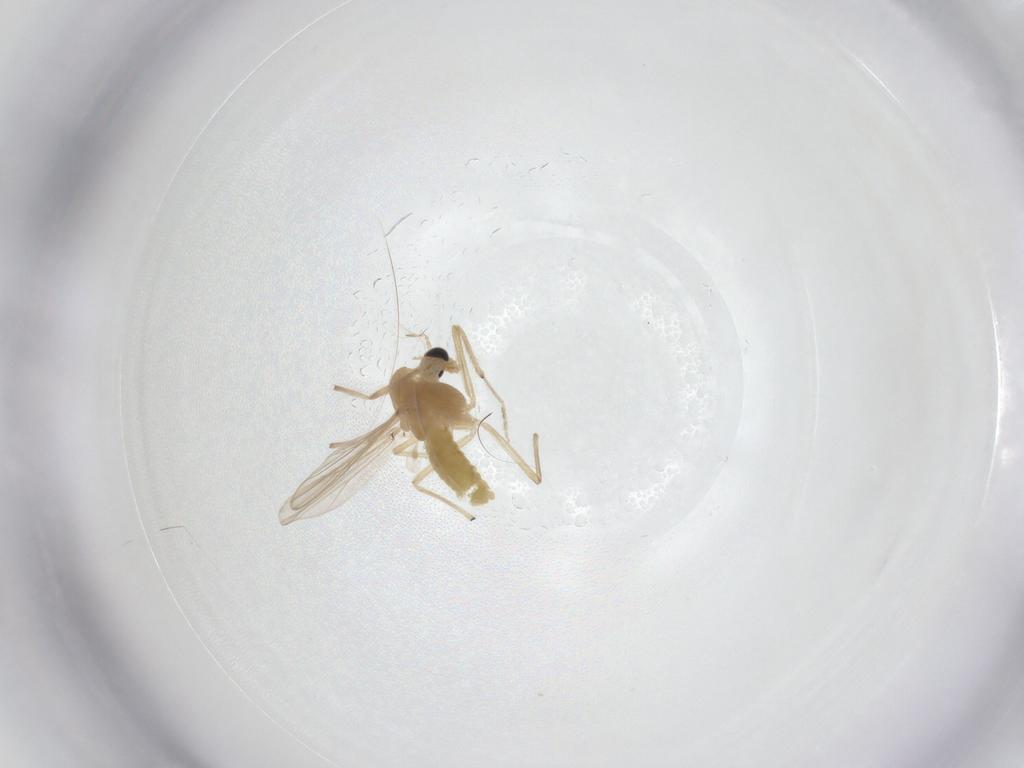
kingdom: Animalia
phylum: Arthropoda
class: Insecta
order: Diptera
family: Chironomidae
